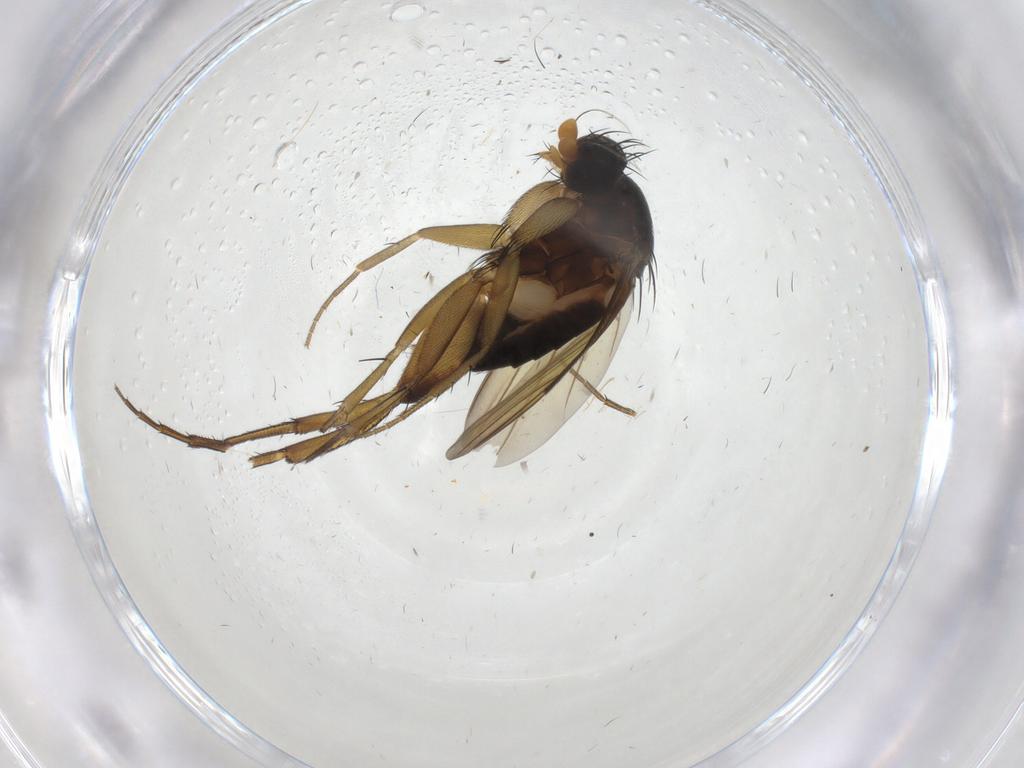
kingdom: Animalia
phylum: Arthropoda
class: Insecta
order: Diptera
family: Phoridae
